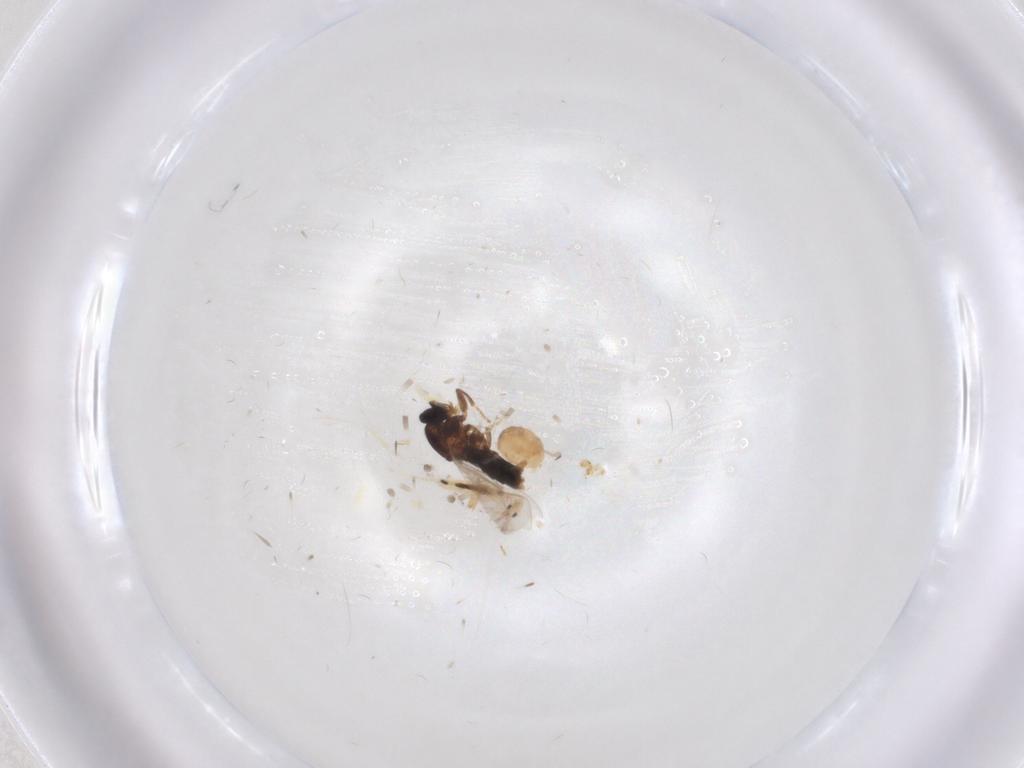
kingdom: Animalia
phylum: Arthropoda
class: Insecta
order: Diptera
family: Scatopsidae
